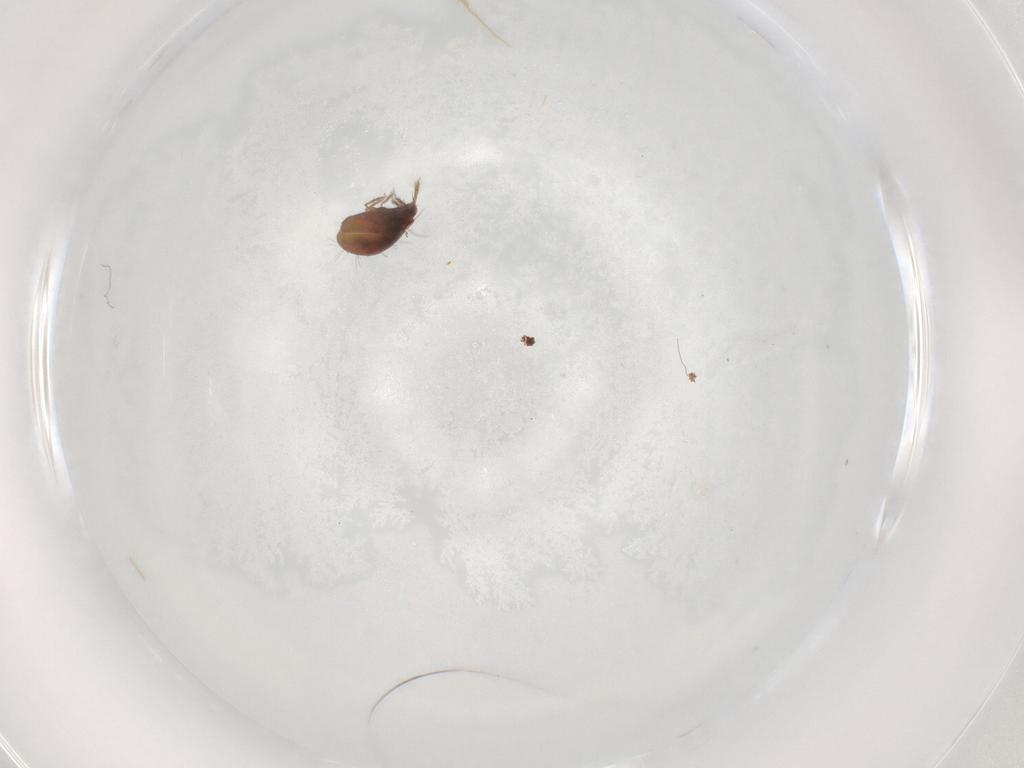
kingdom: Animalia
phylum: Arthropoda
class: Arachnida
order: Sarcoptiformes
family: Humerobatidae
